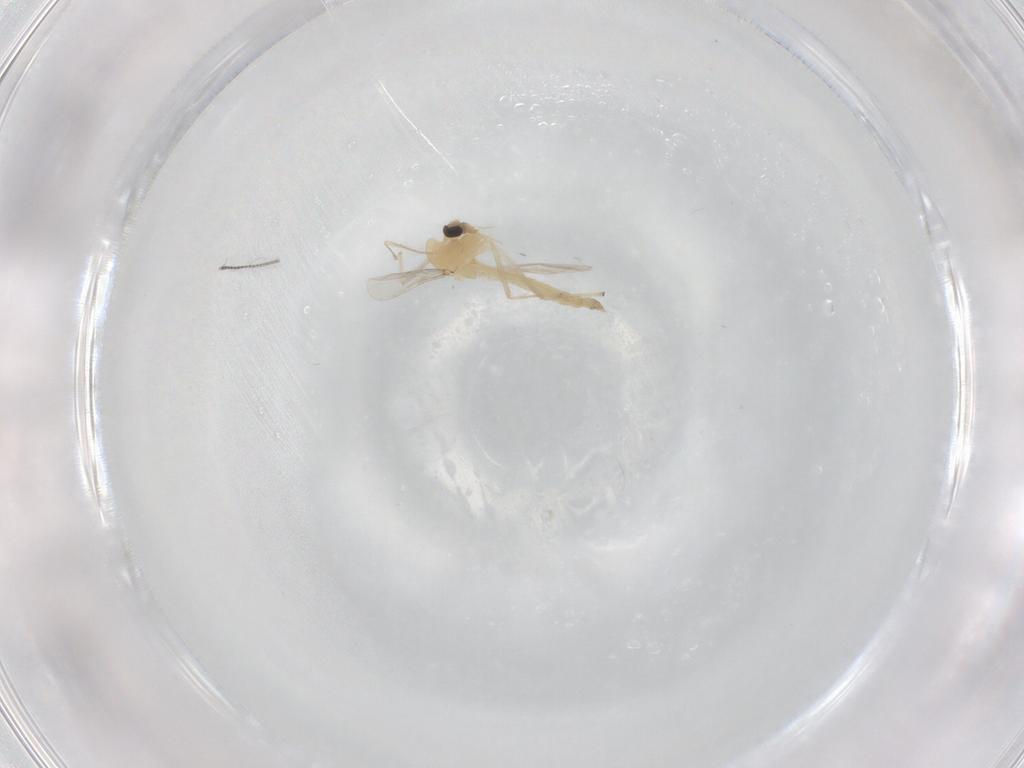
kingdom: Animalia
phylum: Arthropoda
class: Insecta
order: Diptera
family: Chironomidae
